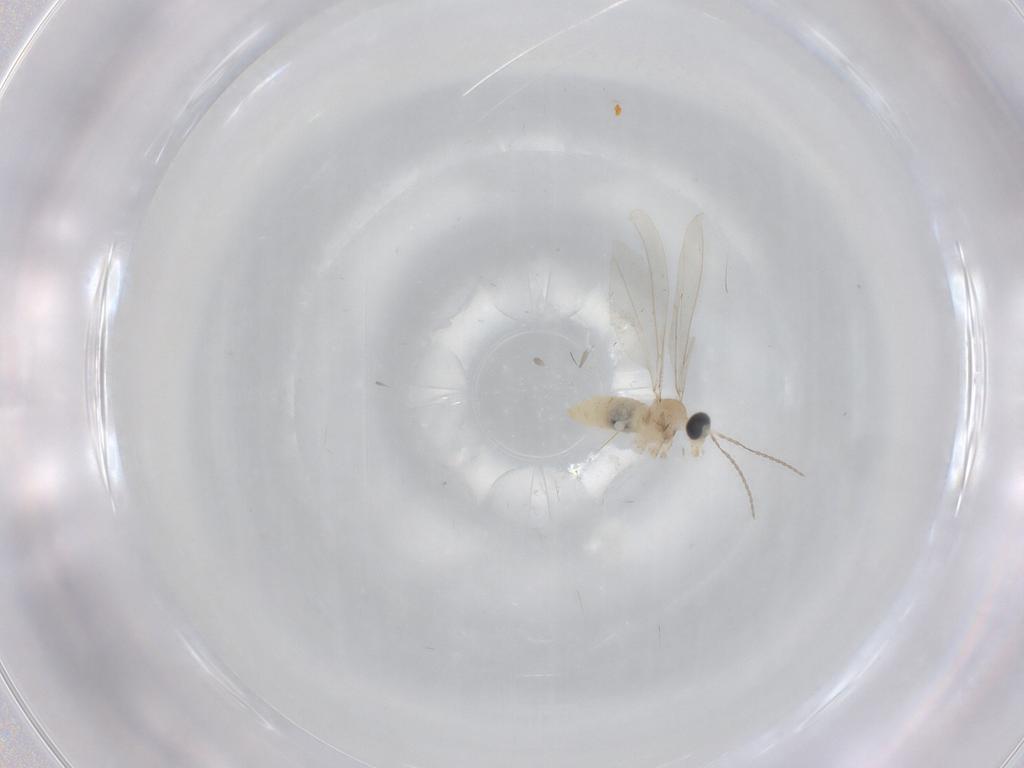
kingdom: Animalia
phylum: Arthropoda
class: Insecta
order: Diptera
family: Cecidomyiidae
